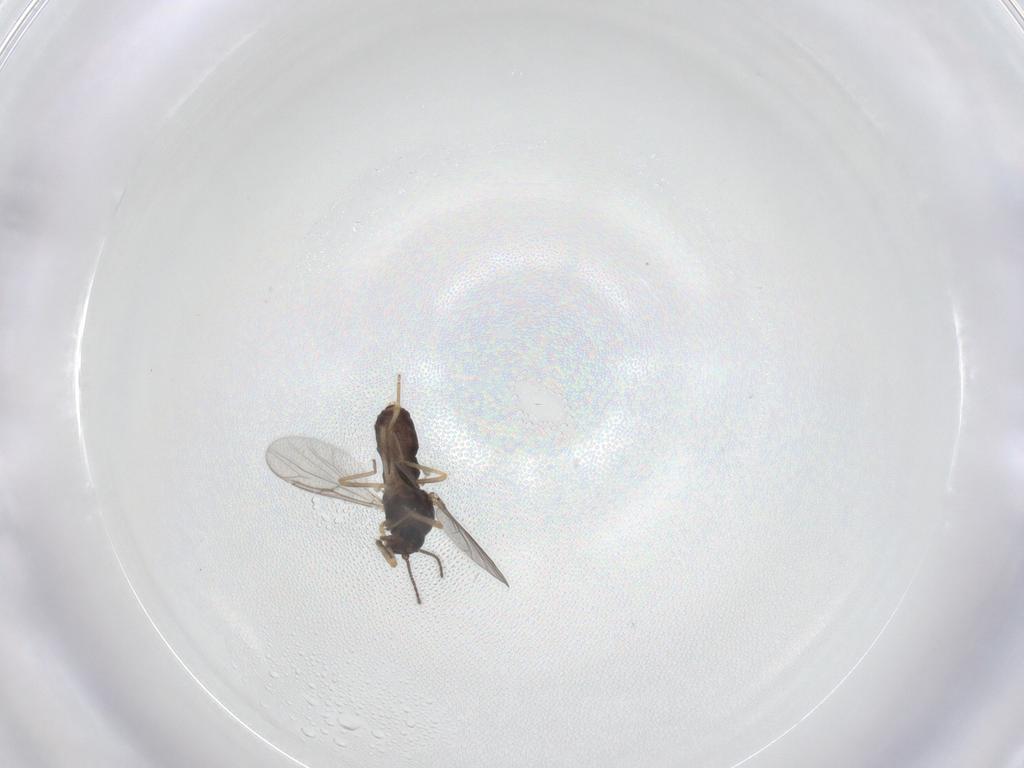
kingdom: Animalia
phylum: Arthropoda
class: Insecta
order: Diptera
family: Ceratopogonidae
